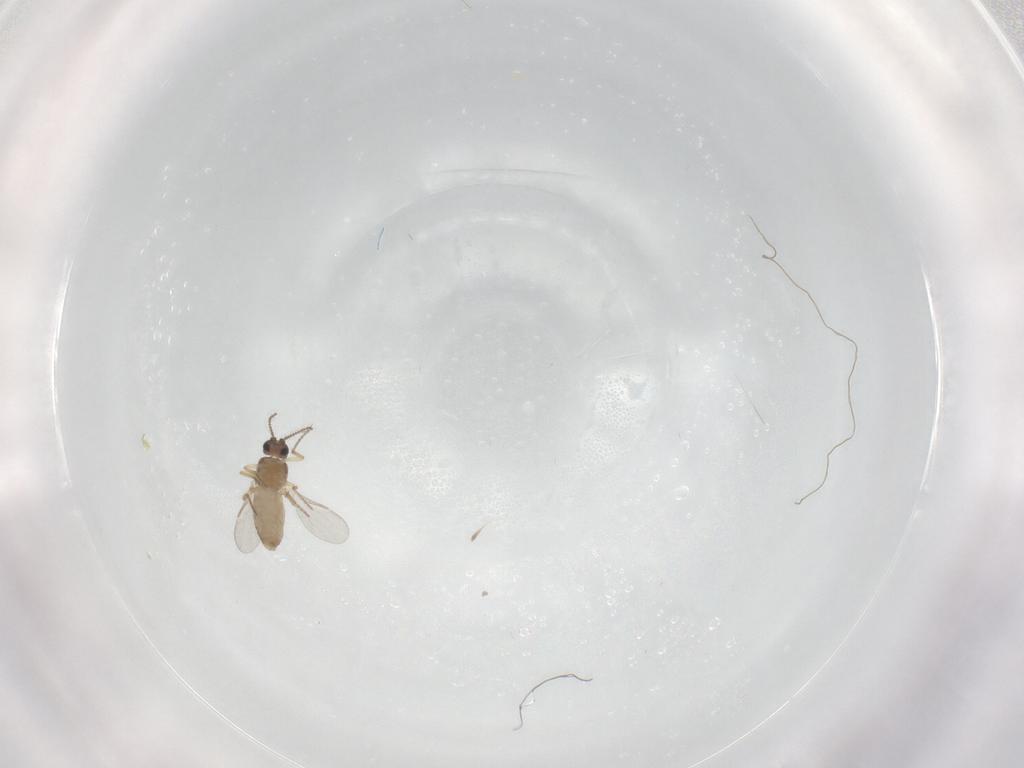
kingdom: Animalia
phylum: Arthropoda
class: Insecta
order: Diptera
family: Ceratopogonidae
